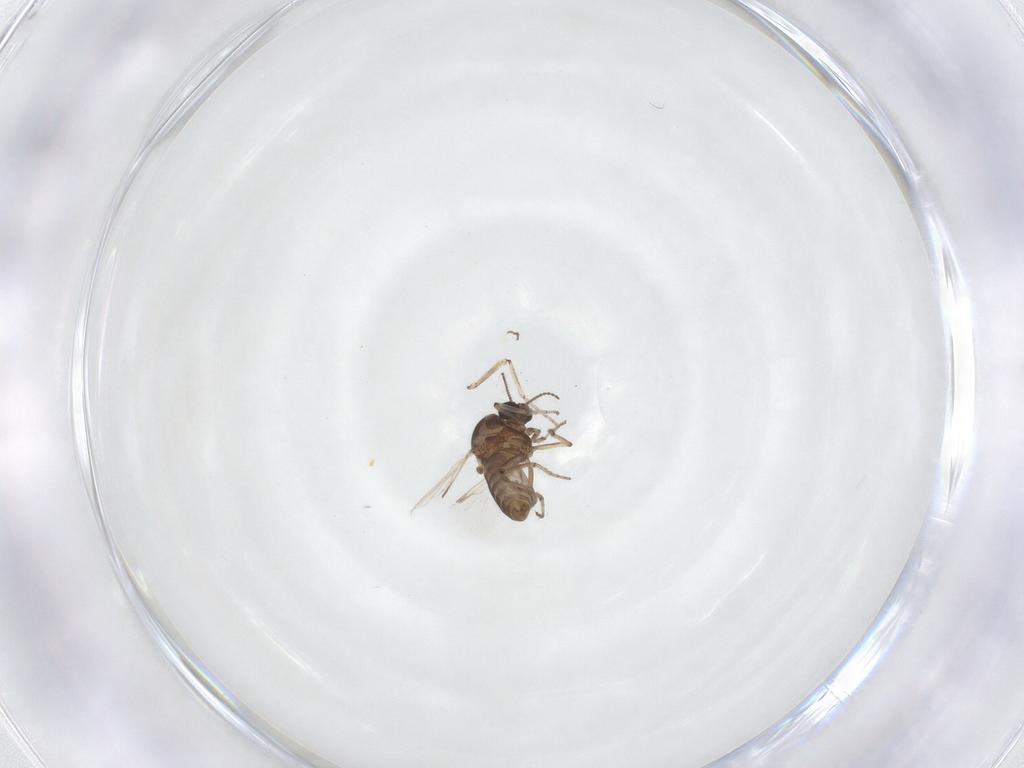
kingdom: Animalia
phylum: Arthropoda
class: Insecta
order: Diptera
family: Ceratopogonidae
